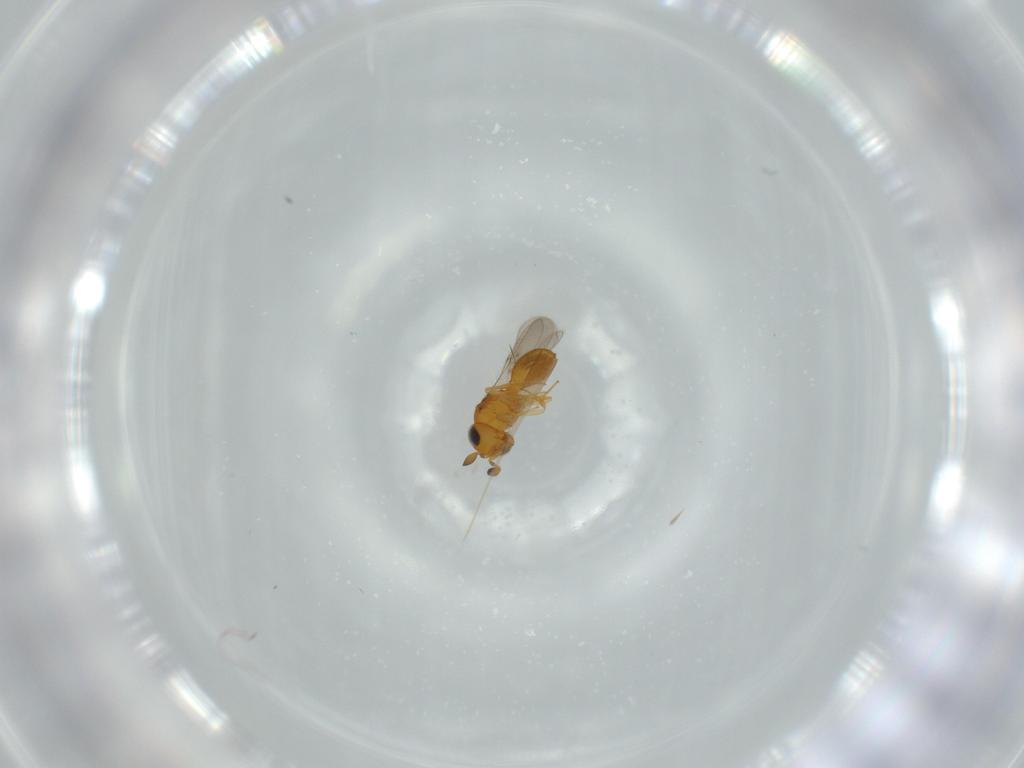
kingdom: Animalia
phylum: Arthropoda
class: Insecta
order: Hymenoptera
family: Scelionidae
